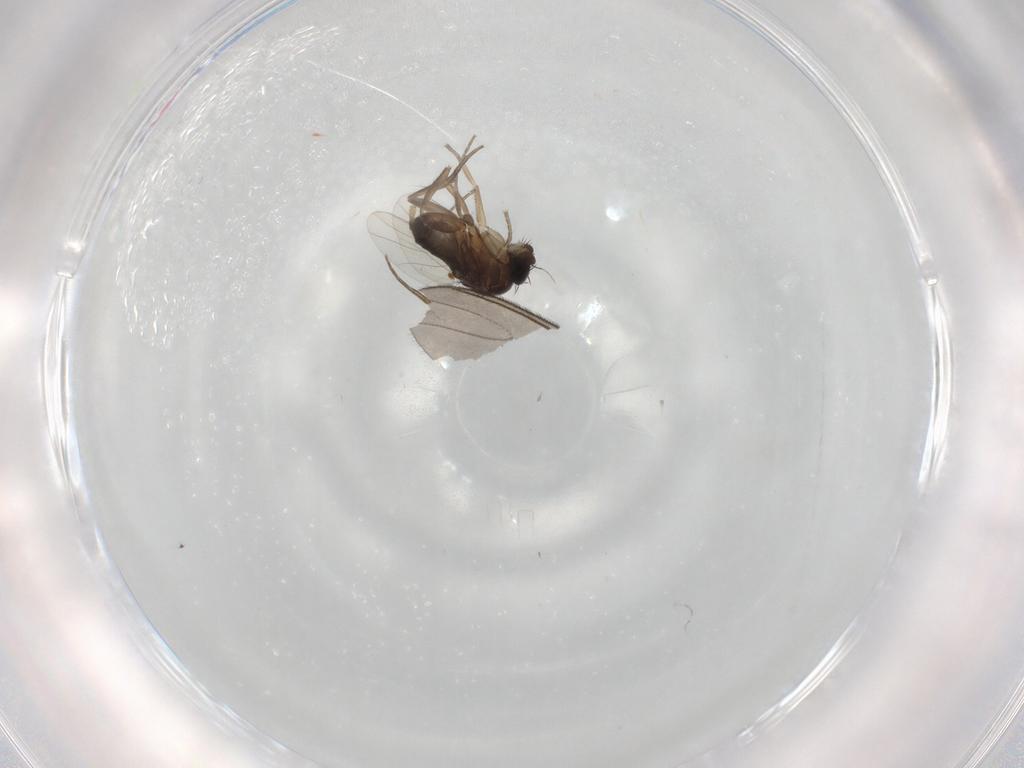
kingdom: Animalia
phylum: Arthropoda
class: Insecta
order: Diptera
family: Phoridae
